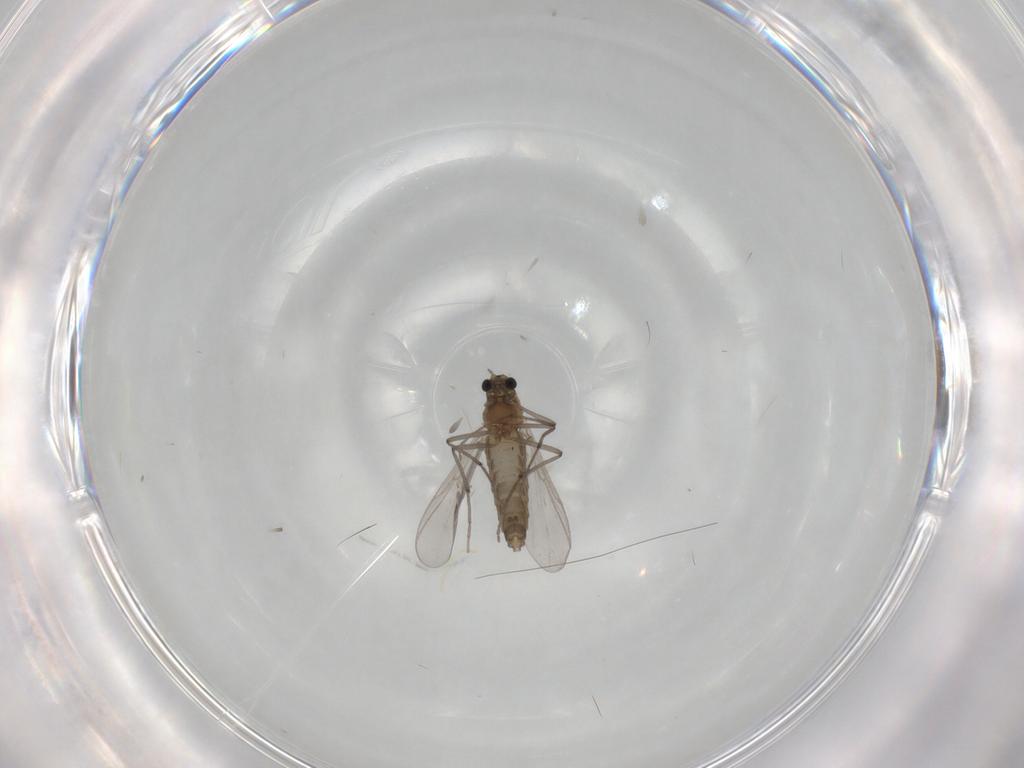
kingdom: Animalia
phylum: Arthropoda
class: Insecta
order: Diptera
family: Chironomidae
